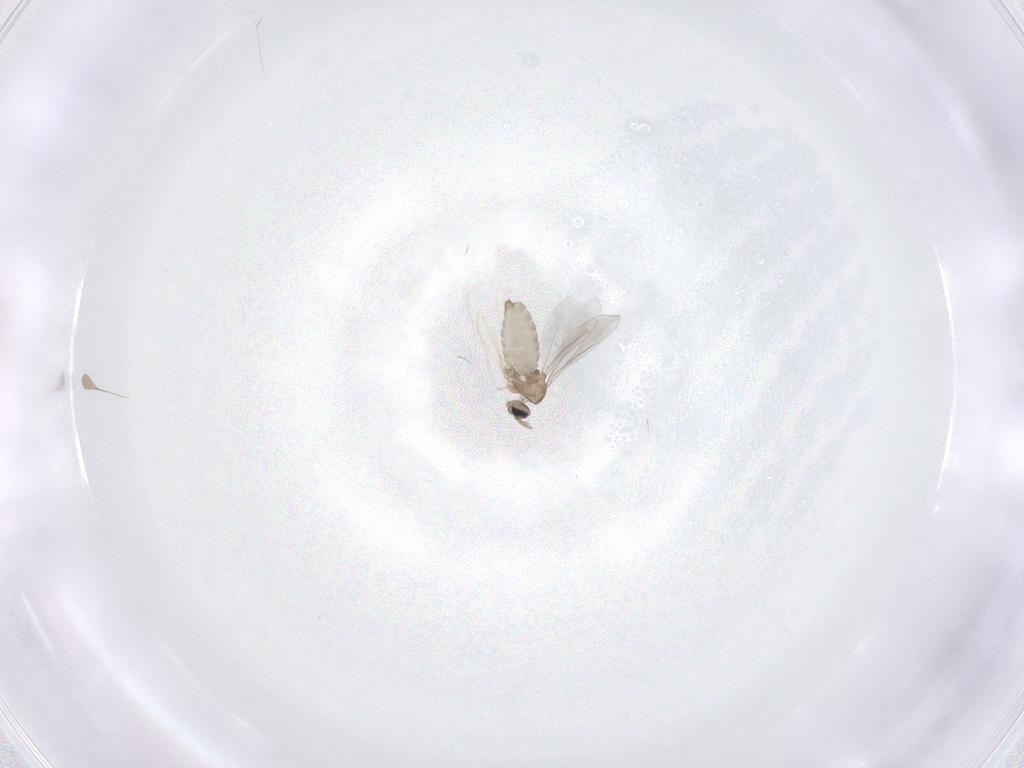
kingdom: Animalia
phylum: Arthropoda
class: Insecta
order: Diptera
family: Cecidomyiidae
